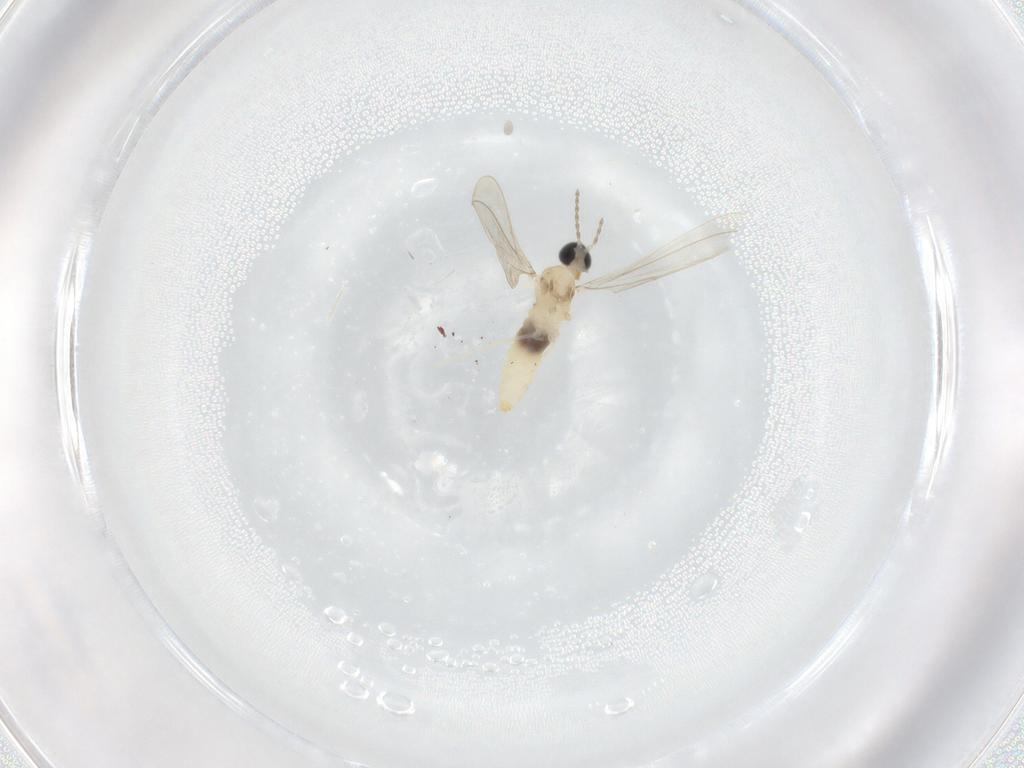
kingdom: Animalia
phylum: Arthropoda
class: Insecta
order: Diptera
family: Cecidomyiidae
